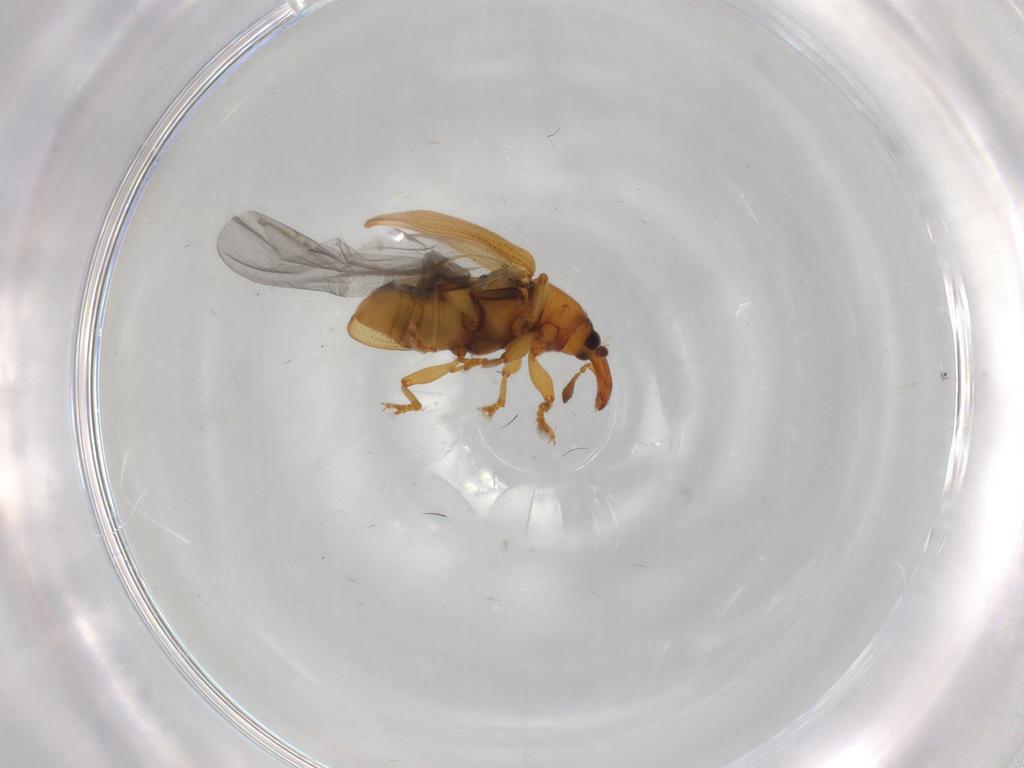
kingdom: Animalia
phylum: Arthropoda
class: Insecta
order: Coleoptera
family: Curculionidae
